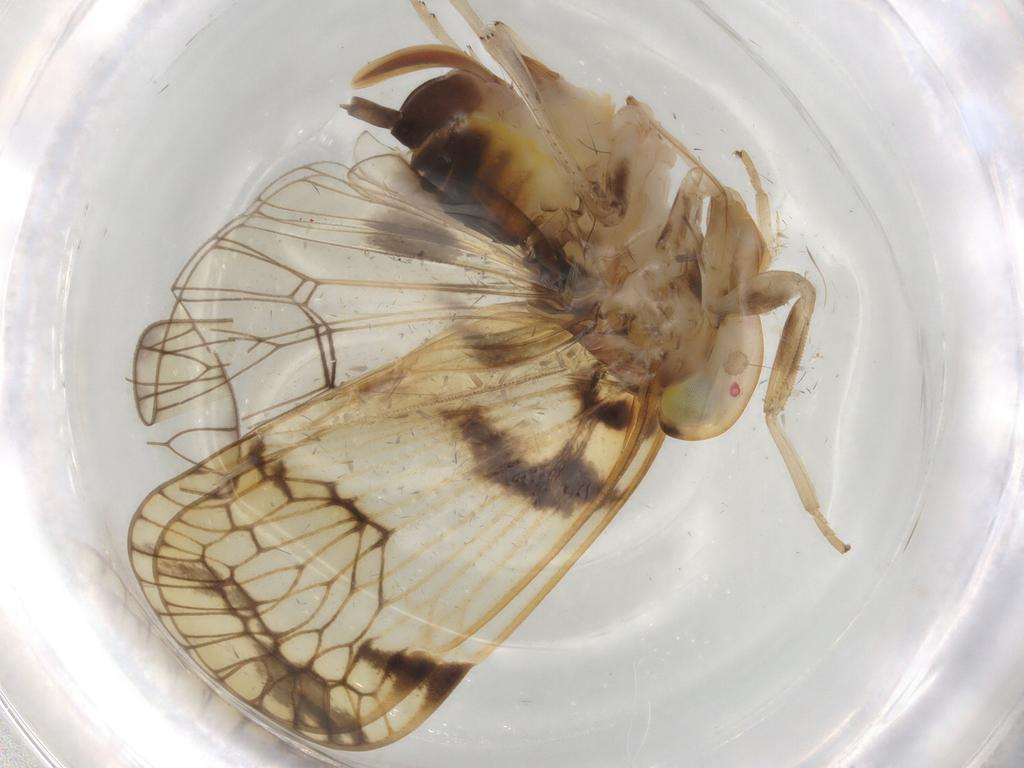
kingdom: Animalia
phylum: Arthropoda
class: Insecta
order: Hemiptera
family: Cixiidae
